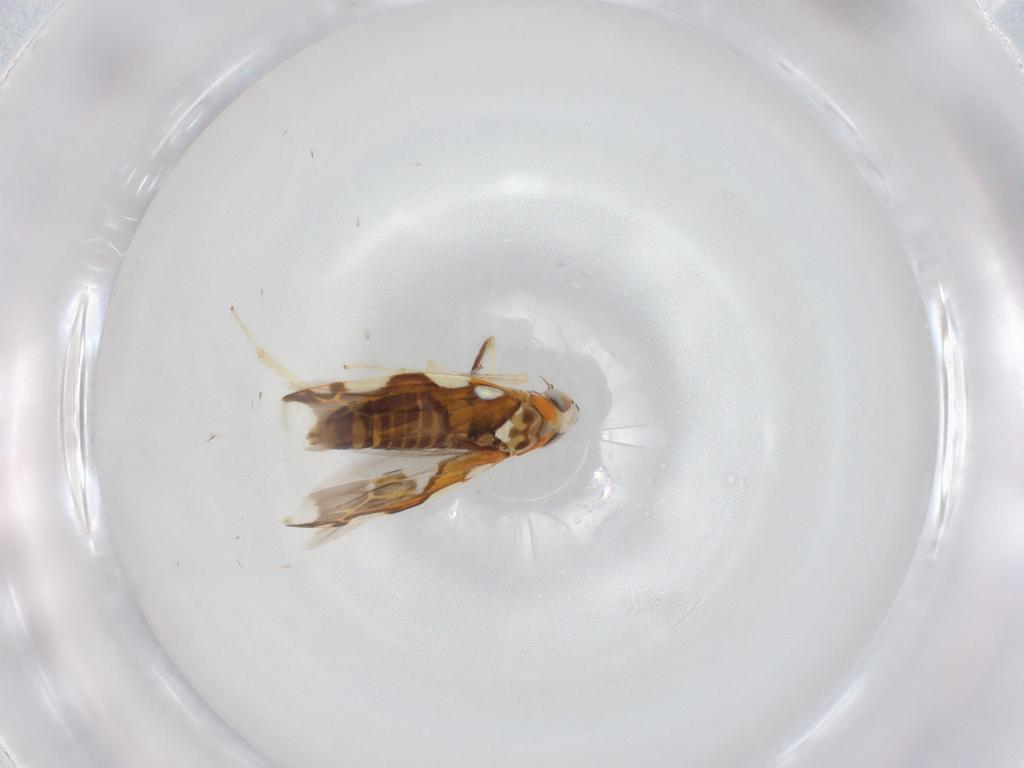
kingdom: Animalia
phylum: Arthropoda
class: Insecta
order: Hemiptera
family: Cicadellidae
